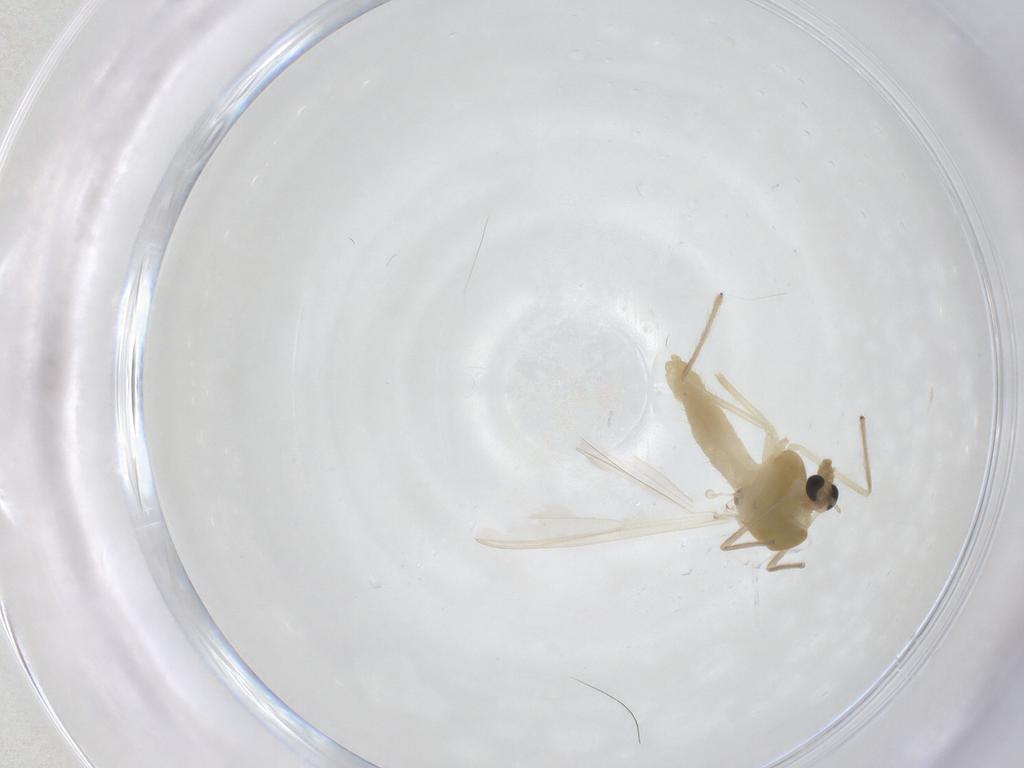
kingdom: Animalia
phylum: Arthropoda
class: Insecta
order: Diptera
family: Chironomidae
